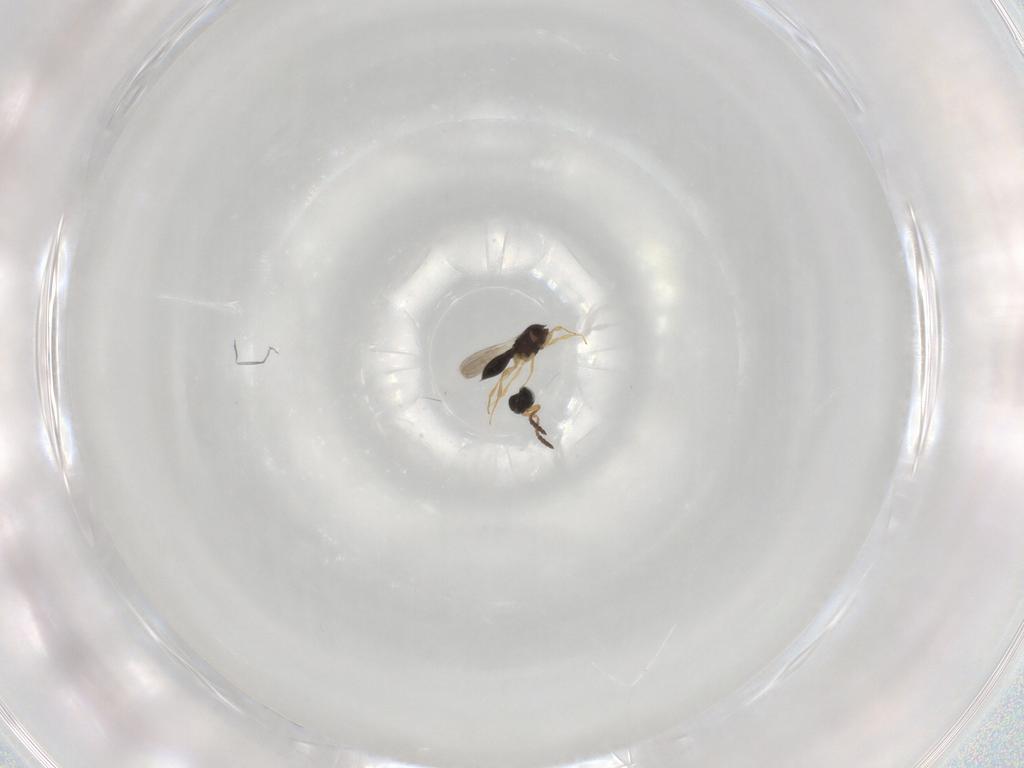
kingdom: Animalia
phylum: Arthropoda
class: Insecta
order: Hymenoptera
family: Scelionidae
